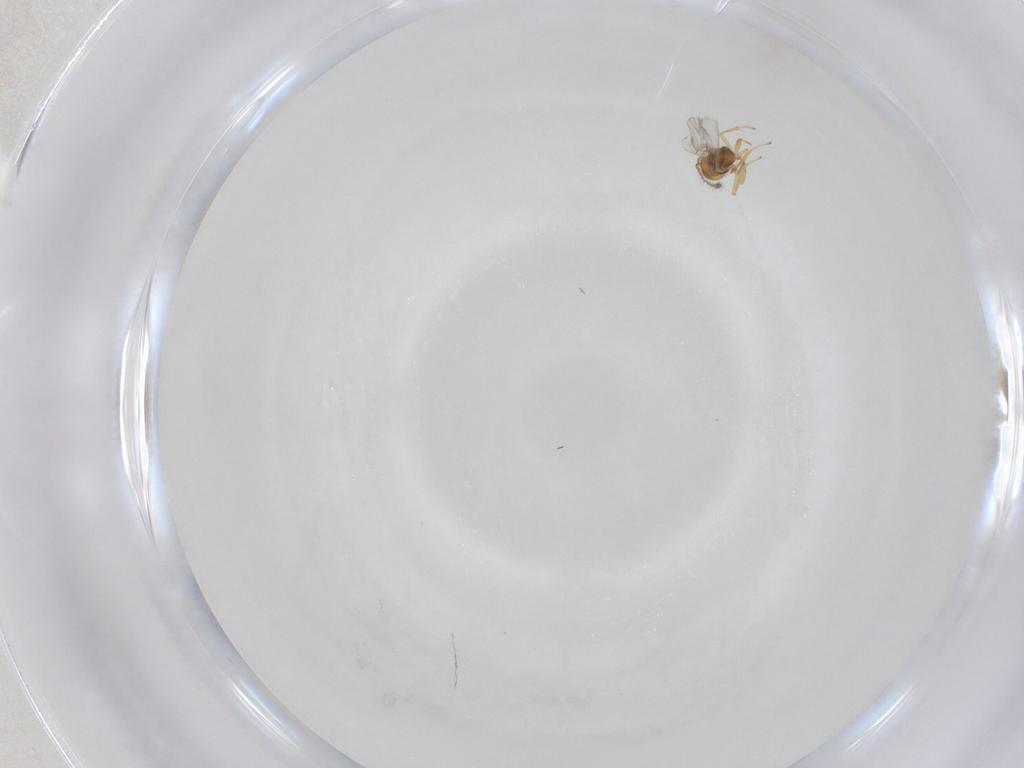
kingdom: Animalia
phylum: Arthropoda
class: Insecta
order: Hymenoptera
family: Encyrtidae
